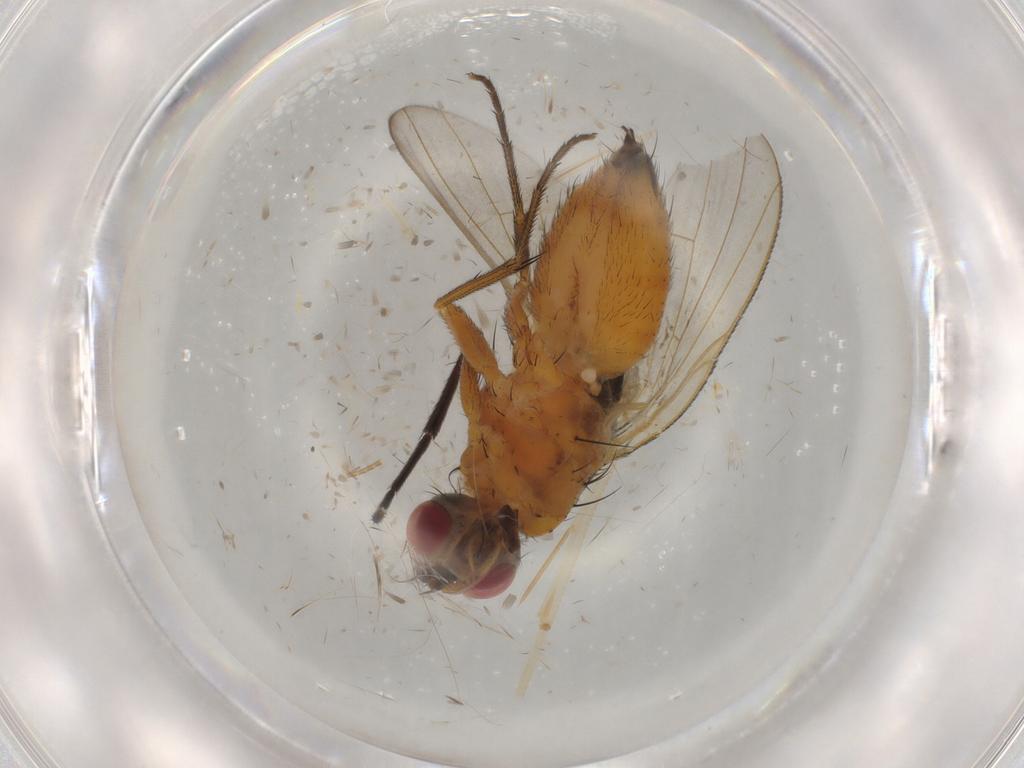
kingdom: Animalia
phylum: Arthropoda
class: Insecta
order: Diptera
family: Muscidae
